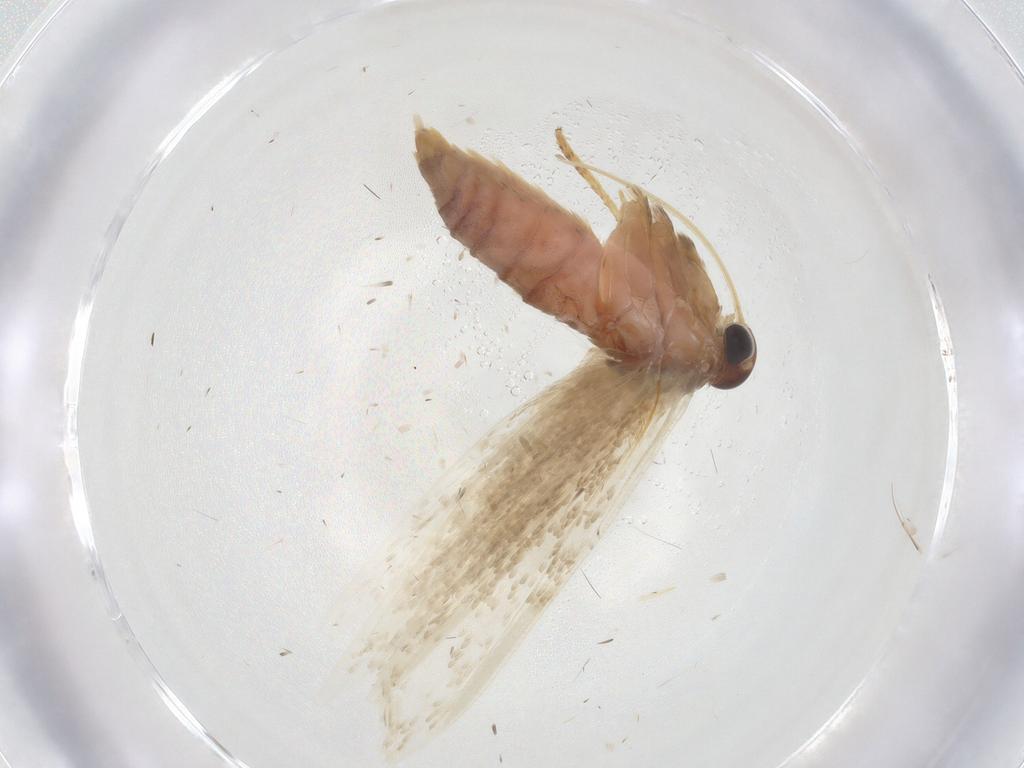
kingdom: Animalia
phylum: Arthropoda
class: Insecta
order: Lepidoptera
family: Blastobasidae
